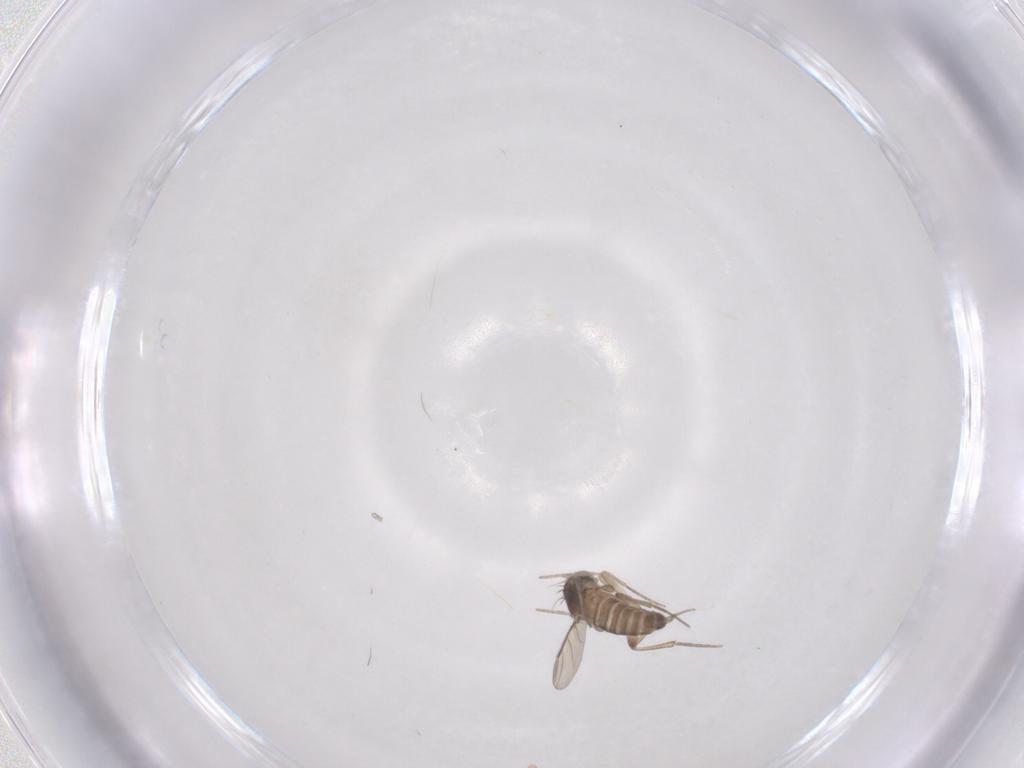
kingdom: Animalia
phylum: Arthropoda
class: Insecta
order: Diptera
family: Phoridae
